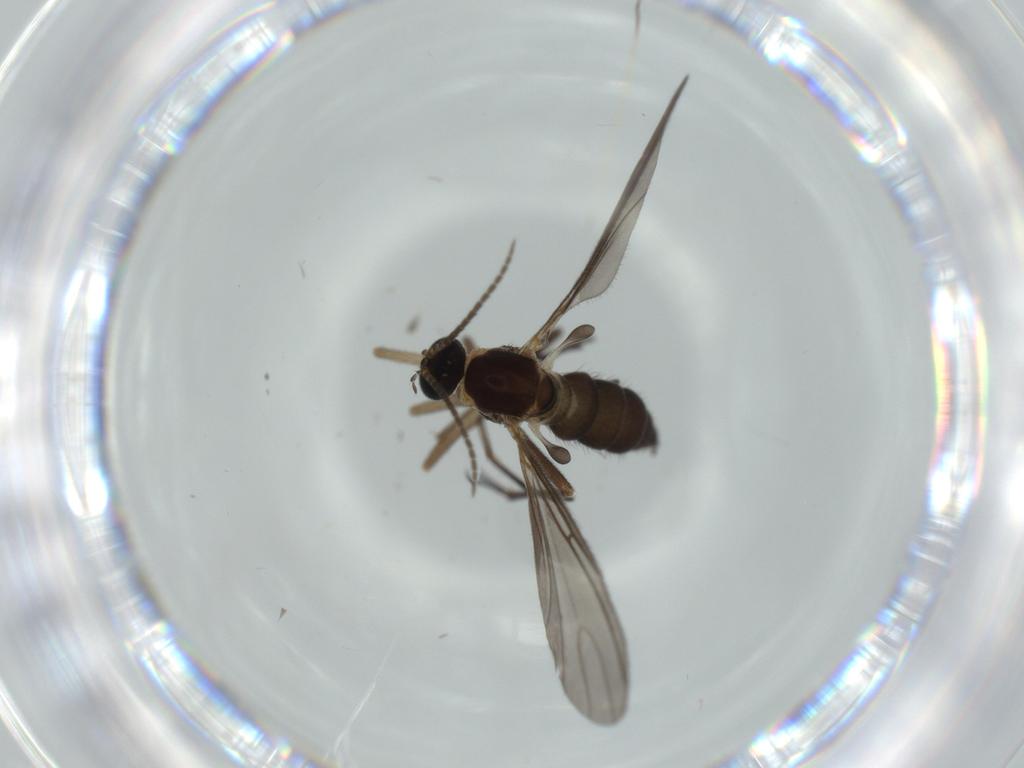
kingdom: Animalia
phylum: Arthropoda
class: Insecta
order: Diptera
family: Sciaridae
